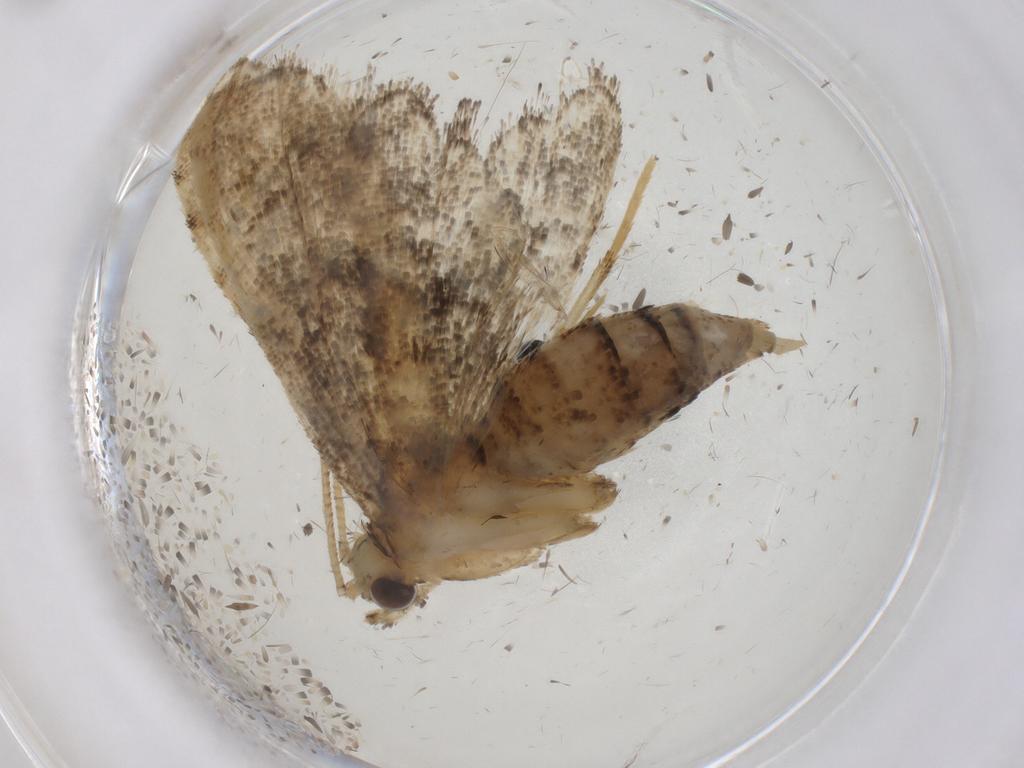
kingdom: Animalia
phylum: Arthropoda
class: Insecta
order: Lepidoptera
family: Crambidae
